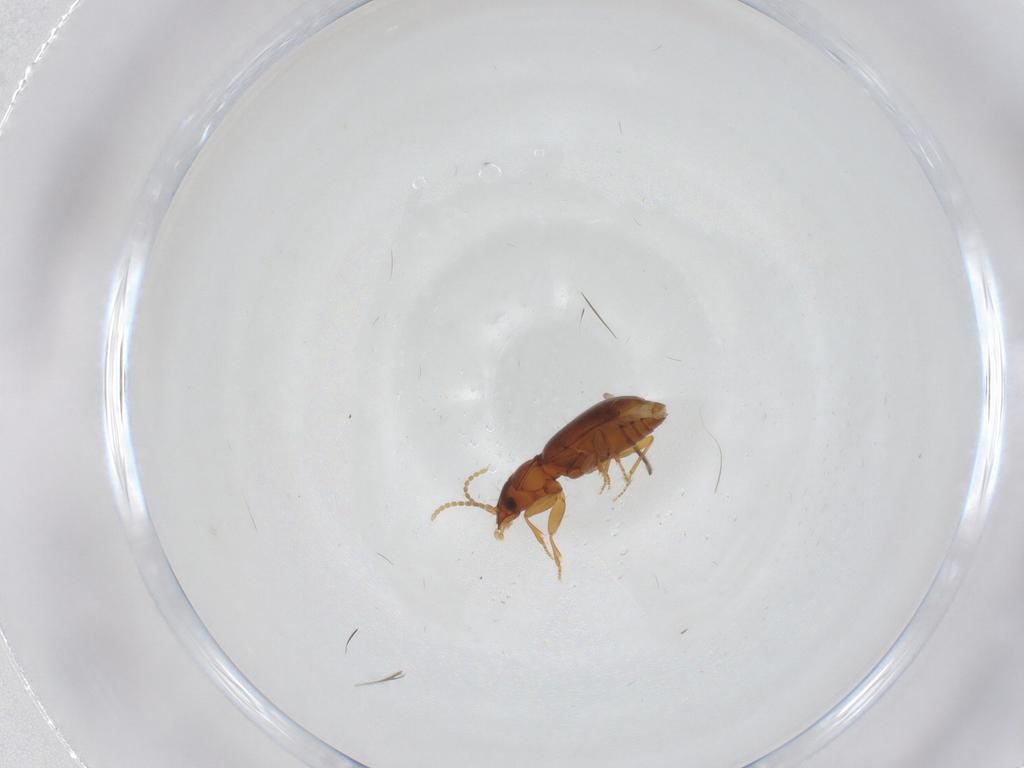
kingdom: Animalia
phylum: Arthropoda
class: Insecta
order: Coleoptera
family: Carabidae
